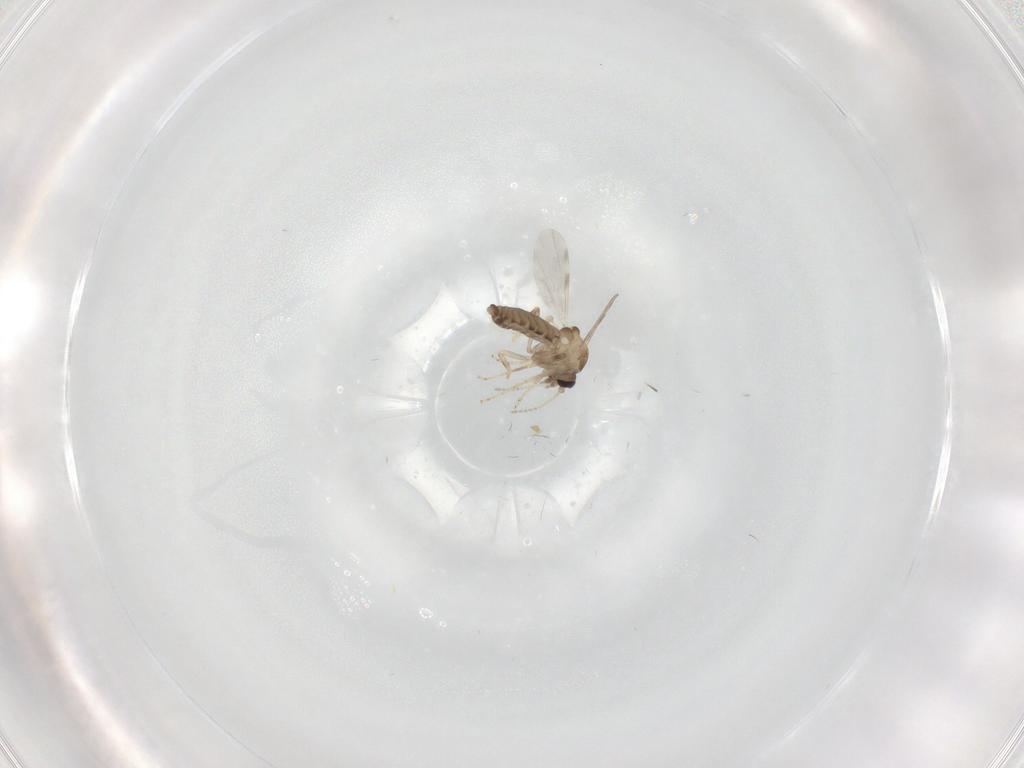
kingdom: Animalia
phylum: Arthropoda
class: Insecta
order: Diptera
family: Ceratopogonidae
